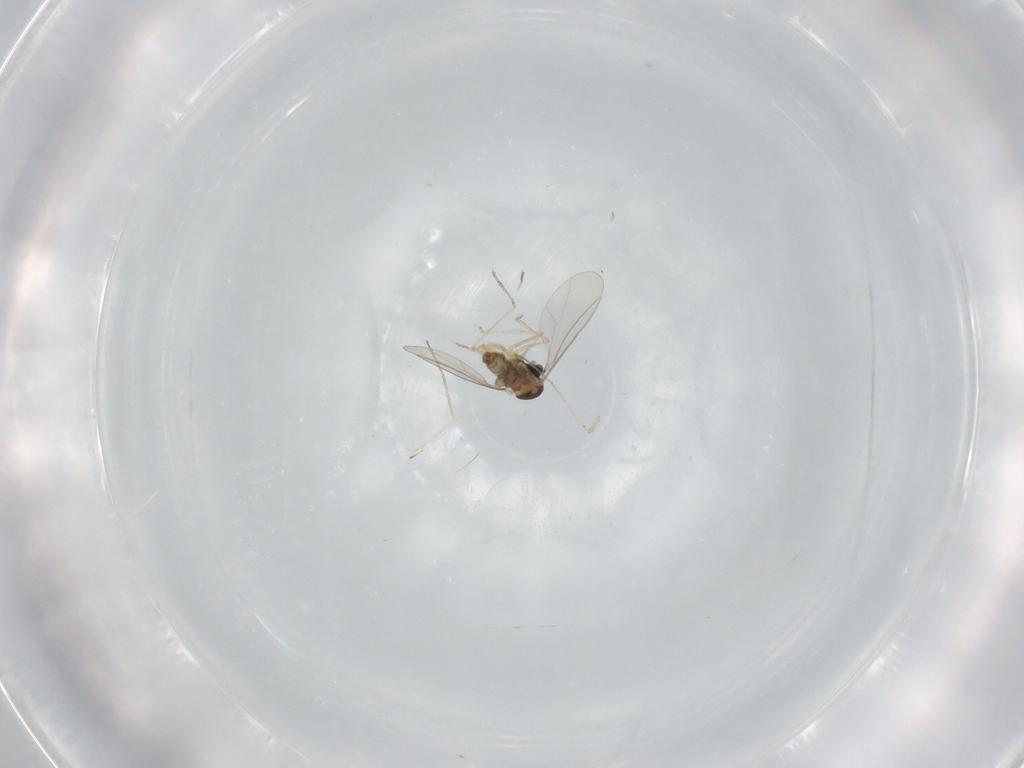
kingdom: Animalia
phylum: Arthropoda
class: Insecta
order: Diptera
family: Cecidomyiidae
